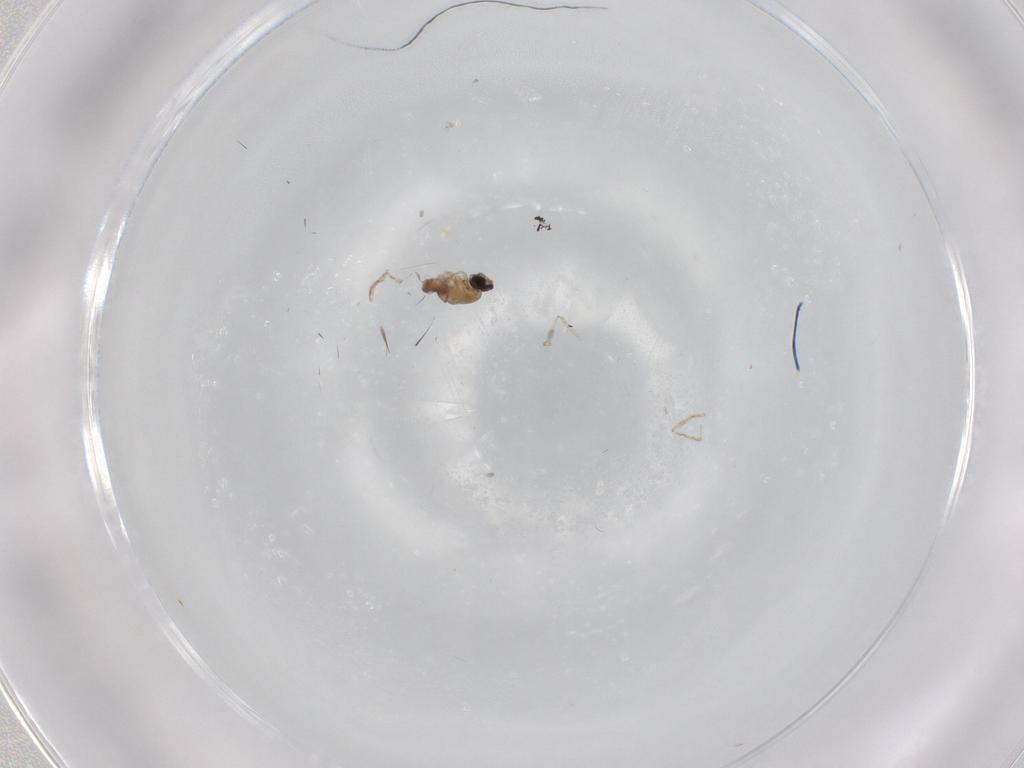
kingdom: Animalia
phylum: Arthropoda
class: Insecta
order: Diptera
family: Cecidomyiidae
